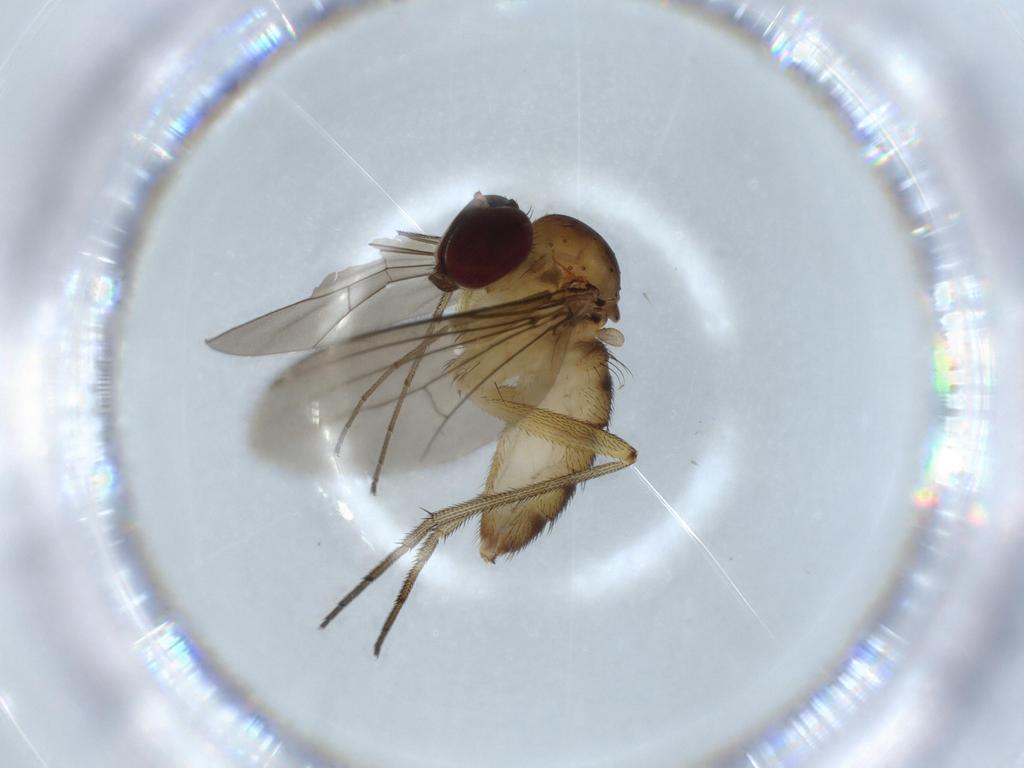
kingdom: Animalia
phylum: Arthropoda
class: Insecta
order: Diptera
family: Dolichopodidae
